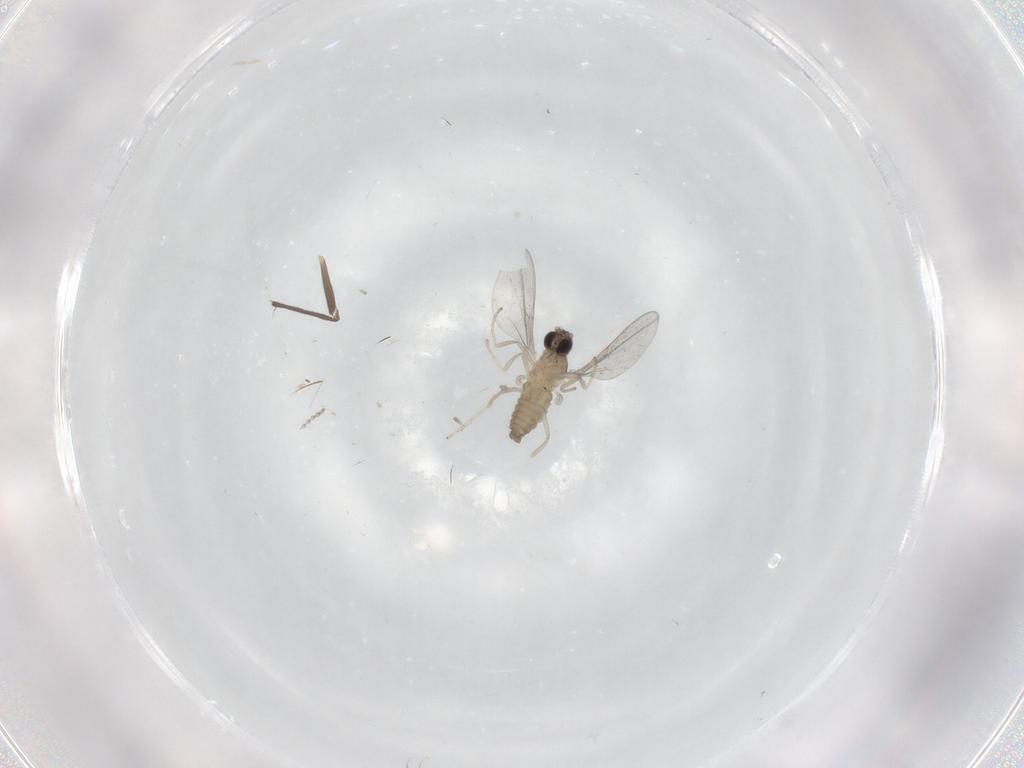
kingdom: Animalia
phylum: Arthropoda
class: Insecta
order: Diptera
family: Cecidomyiidae
